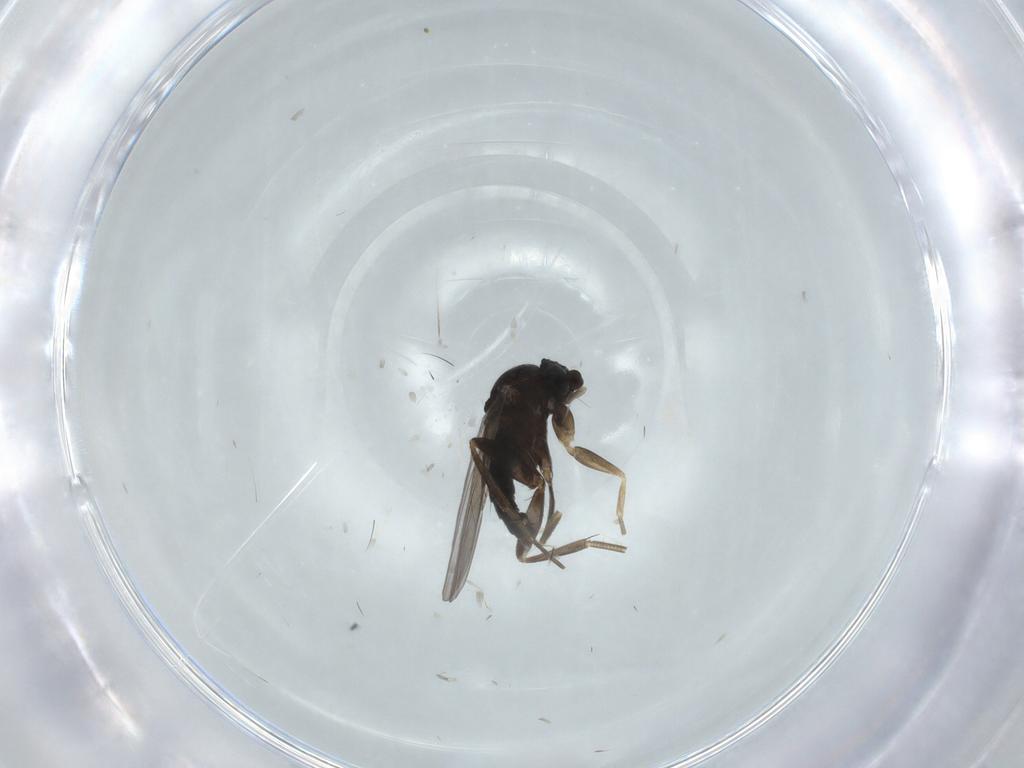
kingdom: Animalia
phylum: Arthropoda
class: Insecta
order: Diptera
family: Phoridae
